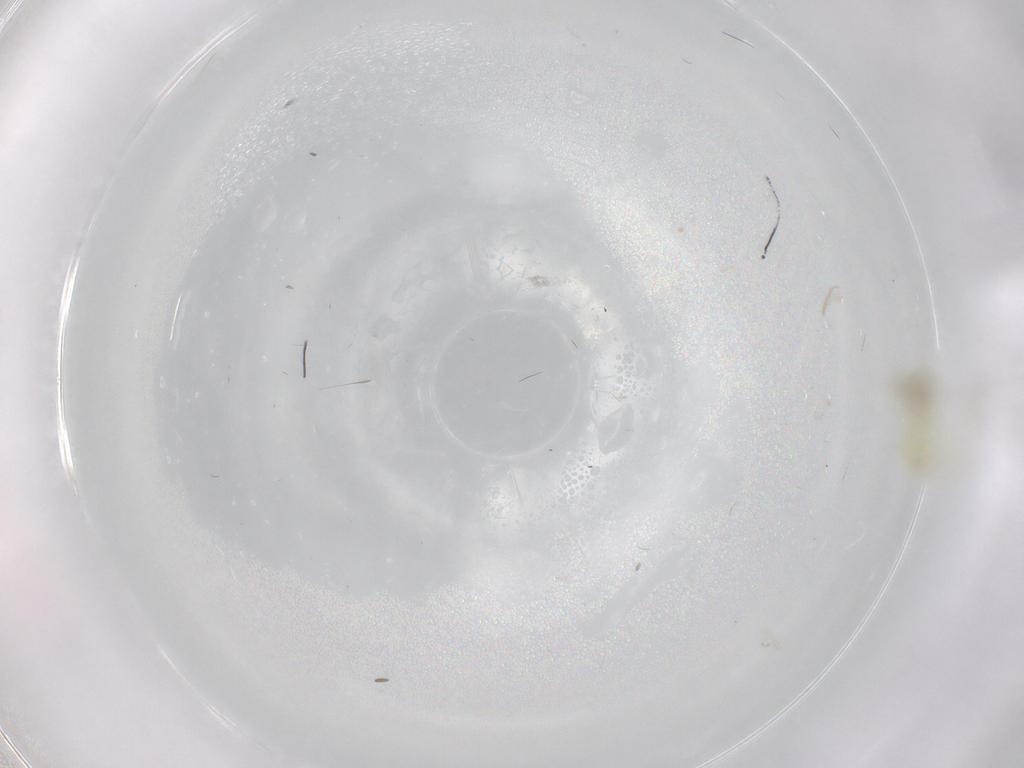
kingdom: Animalia
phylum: Arthropoda
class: Insecta
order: Hemiptera
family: Aleyrodidae
